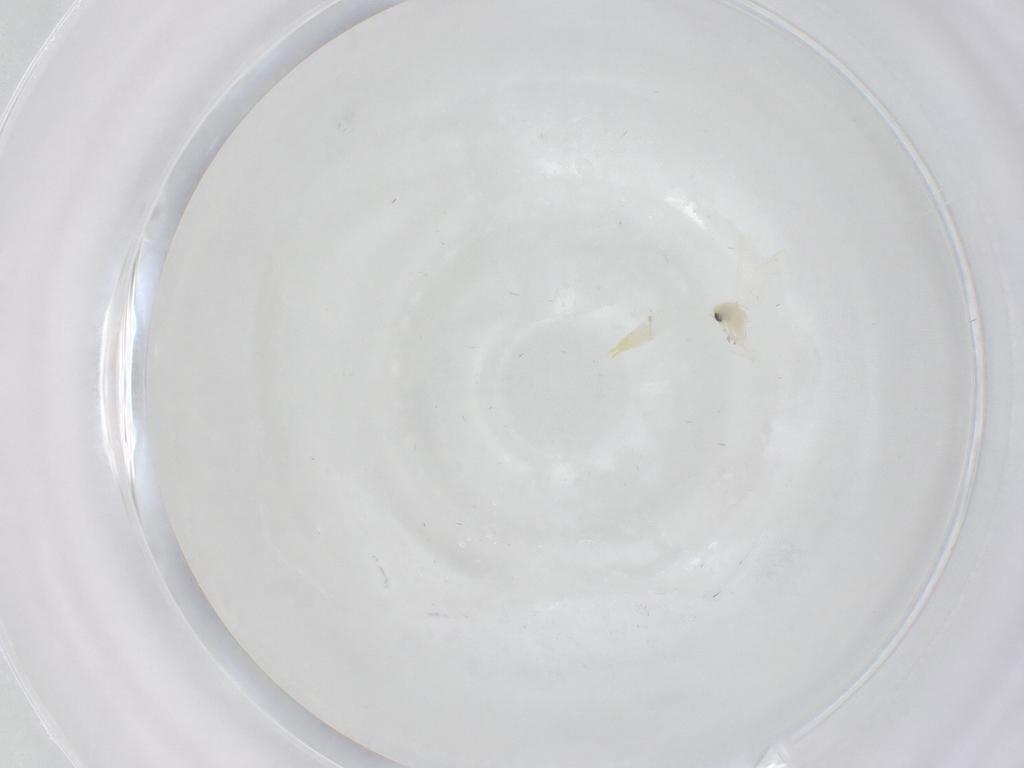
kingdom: Animalia
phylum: Arthropoda
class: Insecta
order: Hemiptera
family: Aleyrodidae
